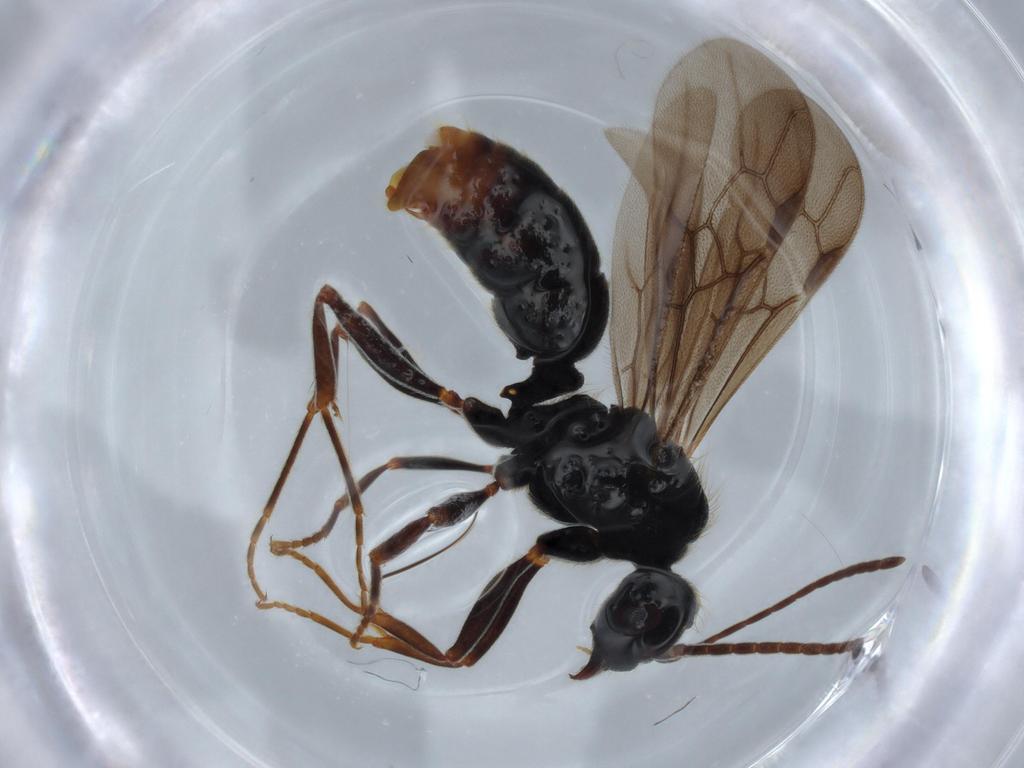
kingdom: Animalia
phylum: Arthropoda
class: Insecta
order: Hymenoptera
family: Formicidae
